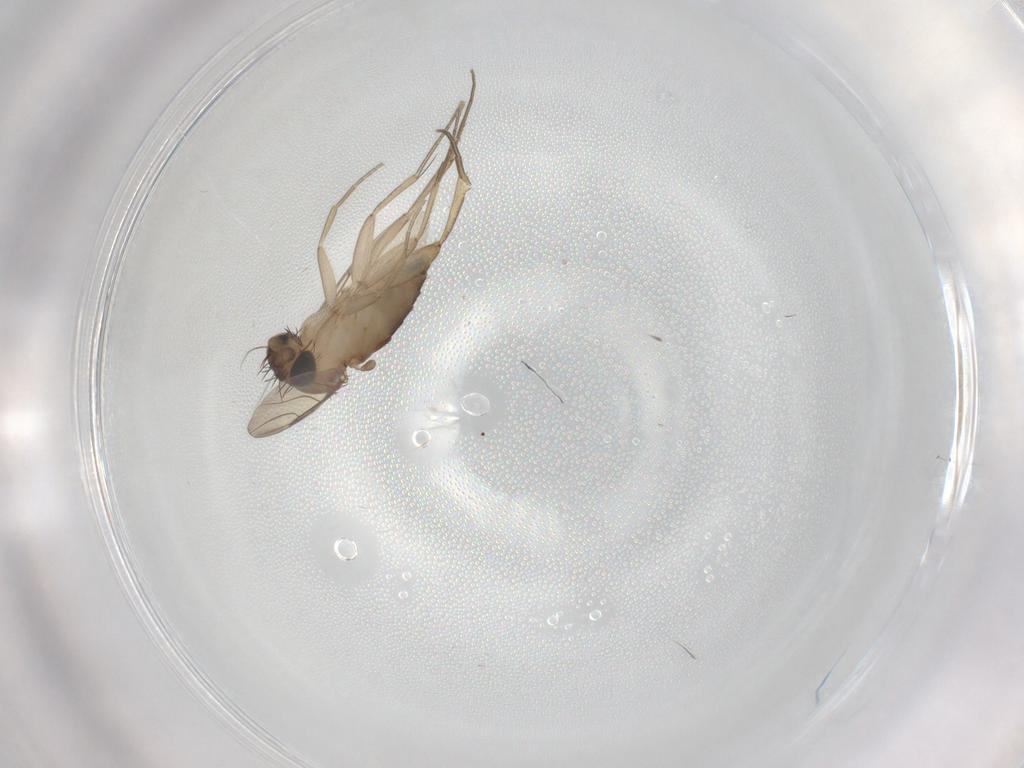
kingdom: Animalia
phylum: Arthropoda
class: Insecta
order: Diptera
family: Phoridae
